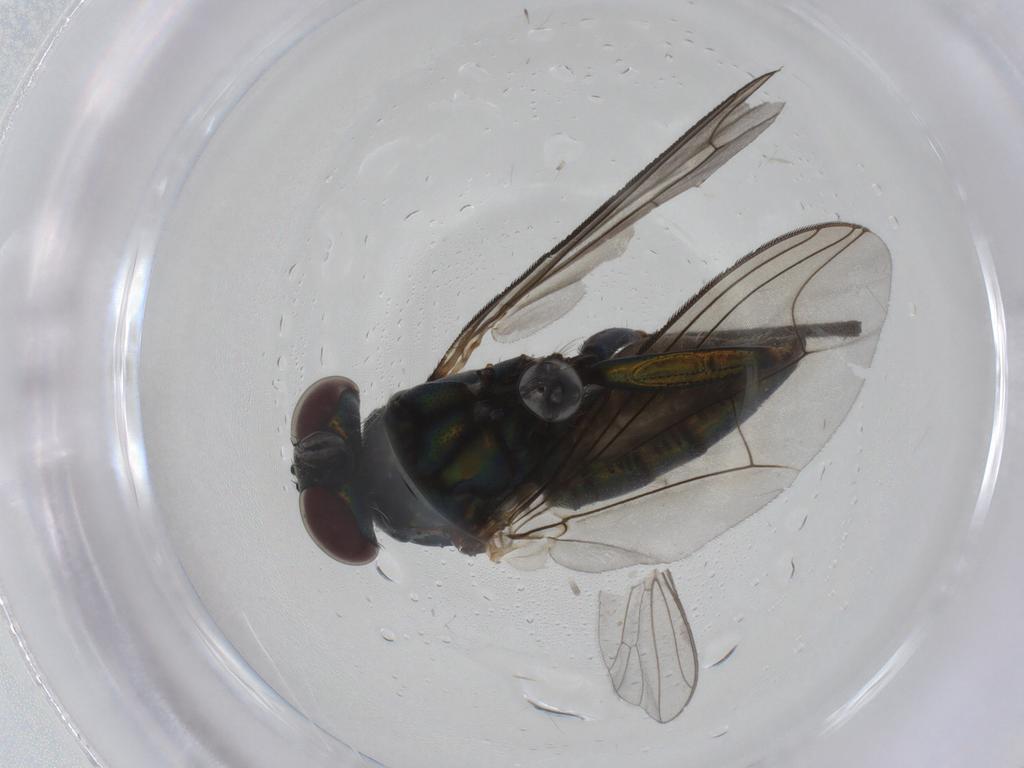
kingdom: Animalia
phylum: Arthropoda
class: Insecta
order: Diptera
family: Dolichopodidae
